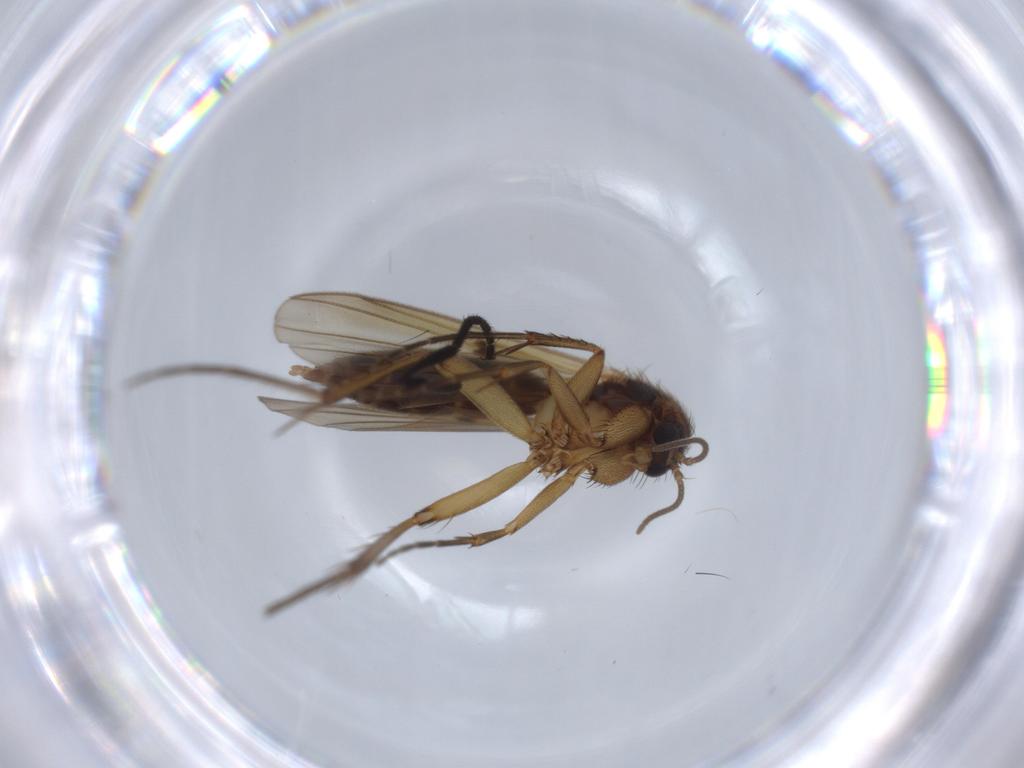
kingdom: Animalia
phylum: Arthropoda
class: Insecta
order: Diptera
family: Empididae
